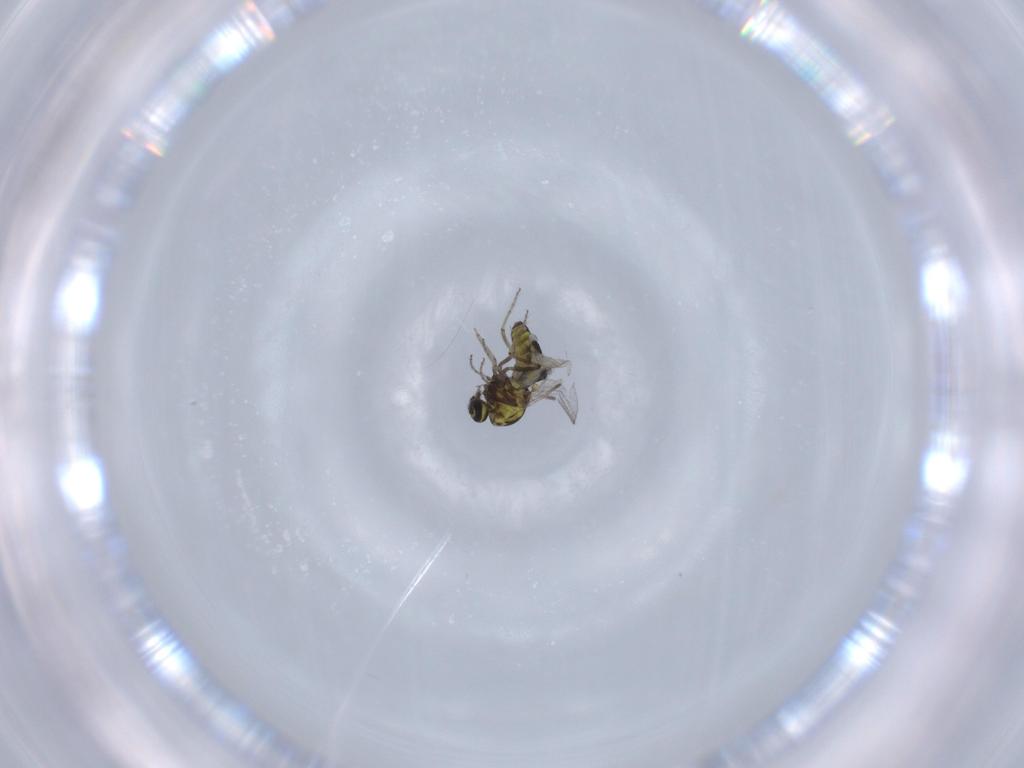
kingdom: Animalia
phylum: Arthropoda
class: Insecta
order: Diptera
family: Ceratopogonidae
